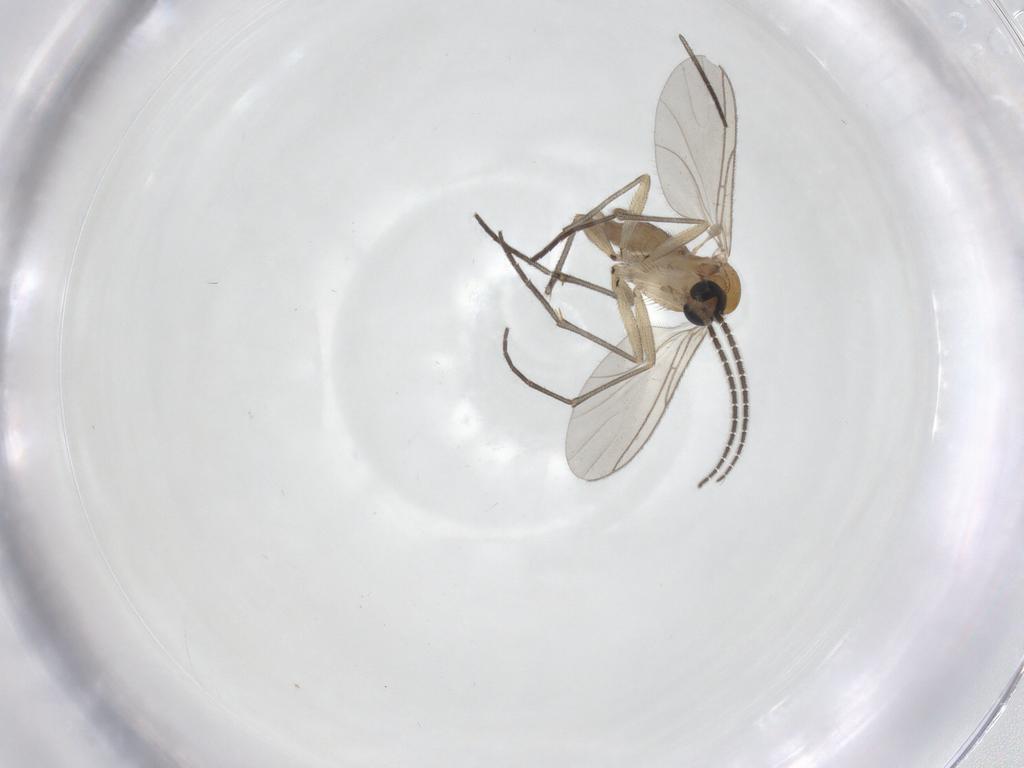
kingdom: Animalia
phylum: Arthropoda
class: Insecta
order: Diptera
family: Sciaridae
